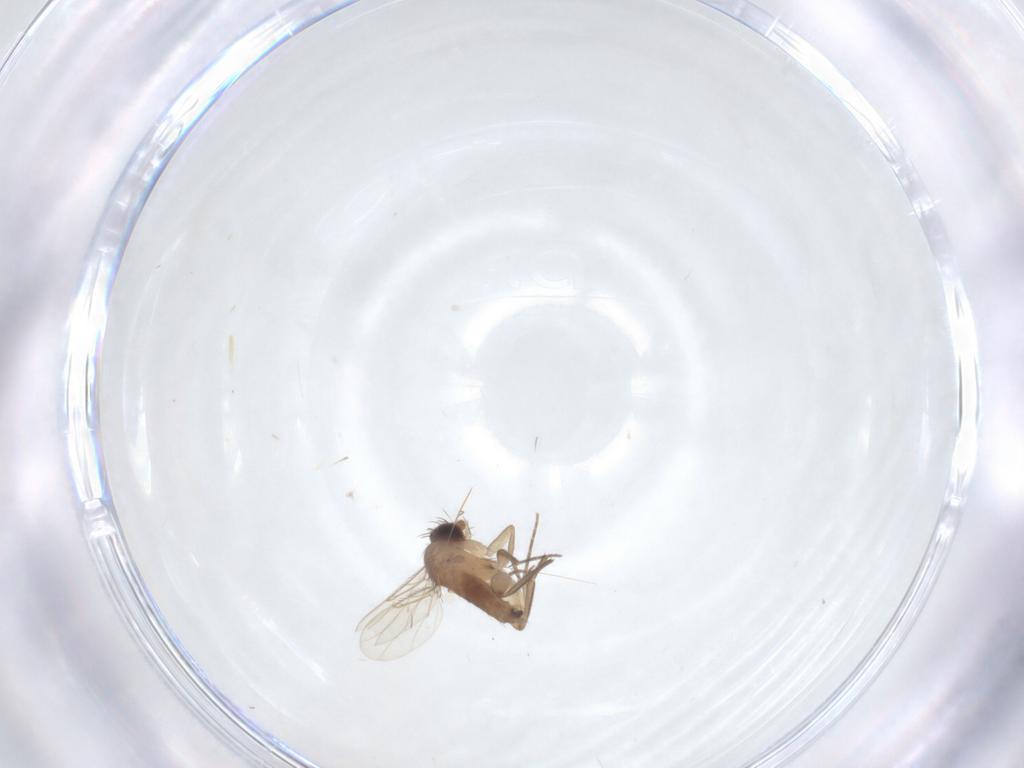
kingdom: Animalia
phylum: Arthropoda
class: Insecta
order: Diptera
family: Phoridae
